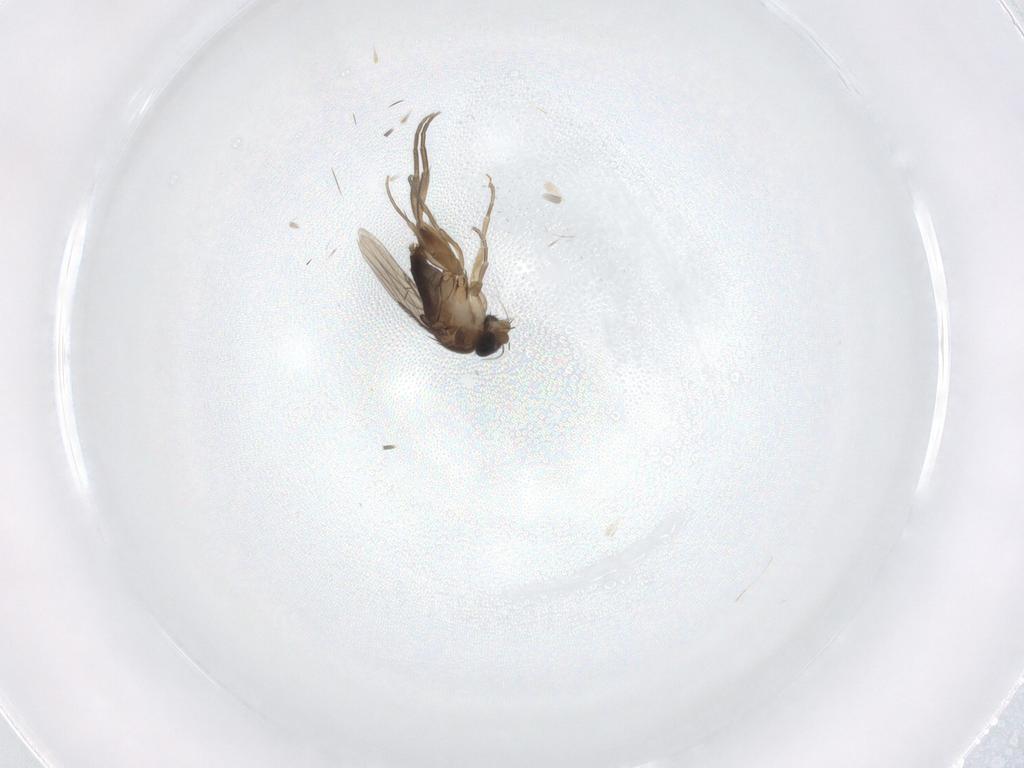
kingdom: Animalia
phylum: Arthropoda
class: Insecta
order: Diptera
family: Phoridae
